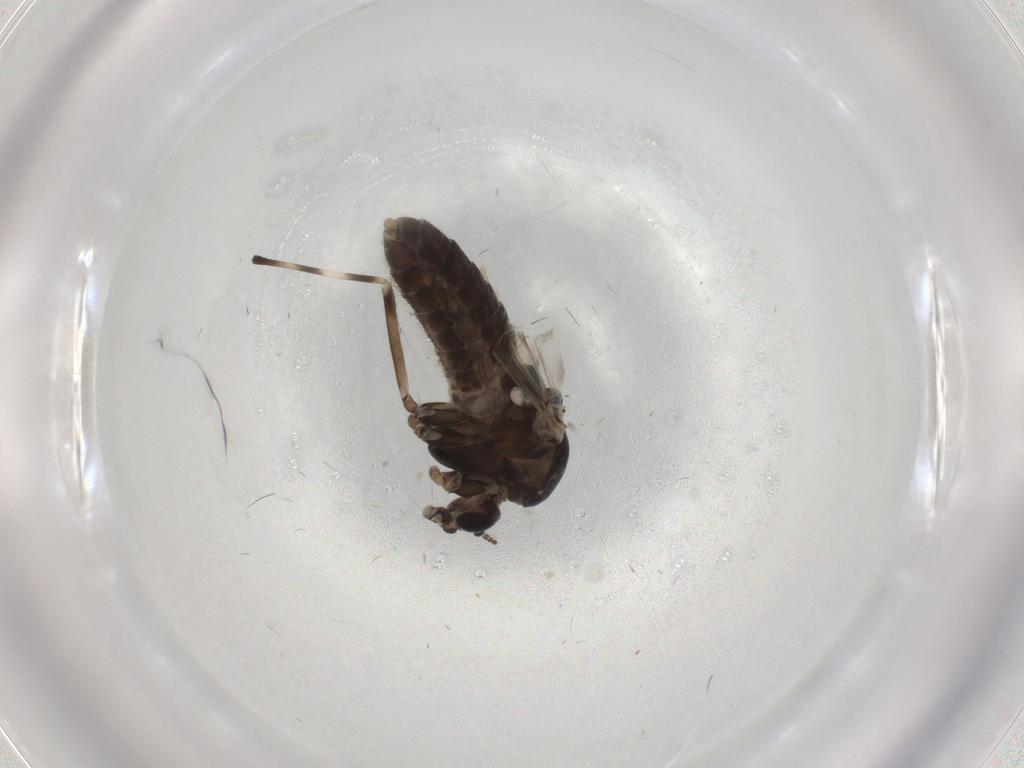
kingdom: Animalia
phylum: Arthropoda
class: Insecta
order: Diptera
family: Chironomidae
